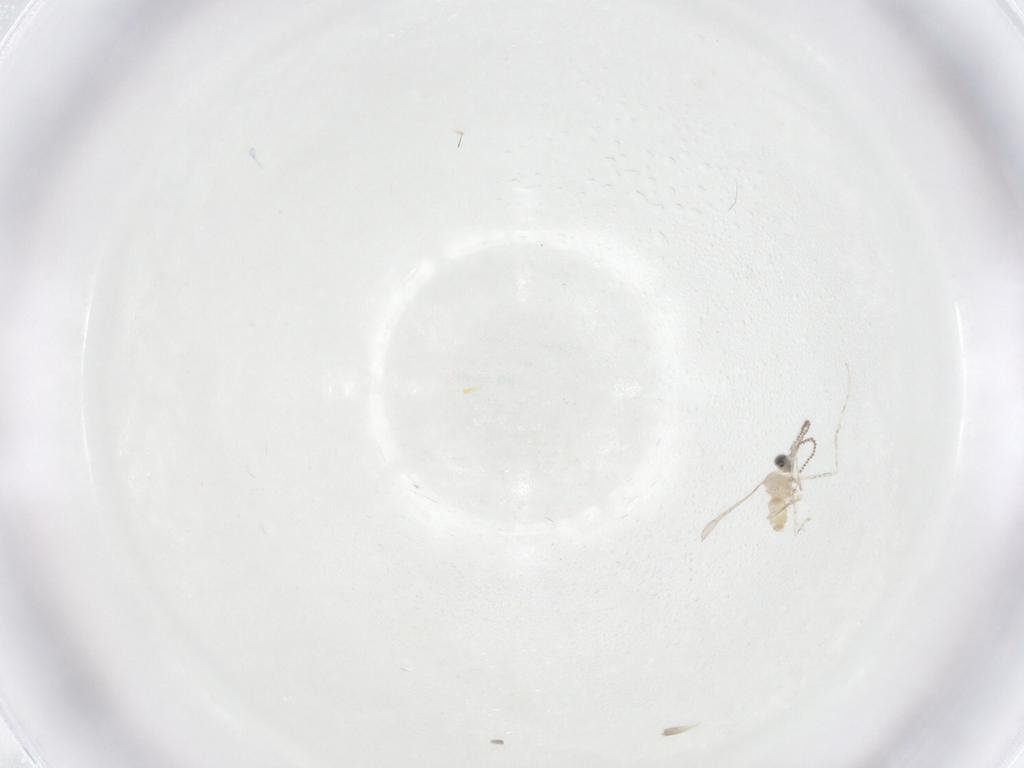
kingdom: Animalia
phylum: Arthropoda
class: Insecta
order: Diptera
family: Cecidomyiidae
